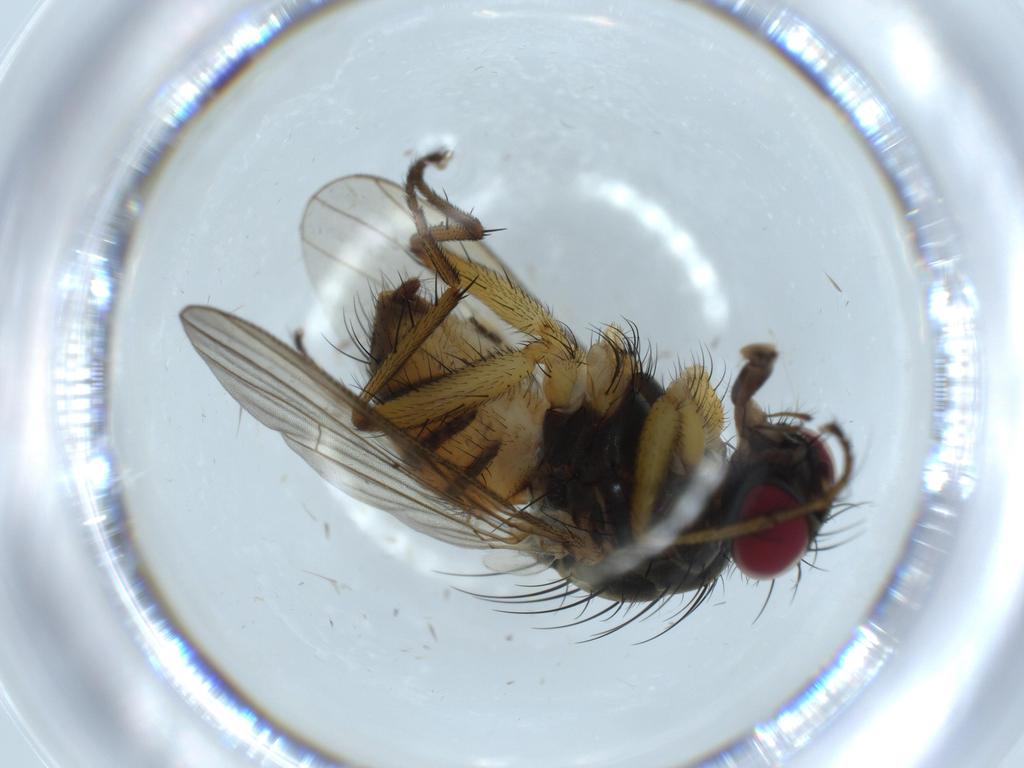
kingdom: Animalia
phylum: Arthropoda
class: Insecta
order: Diptera
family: Muscidae
